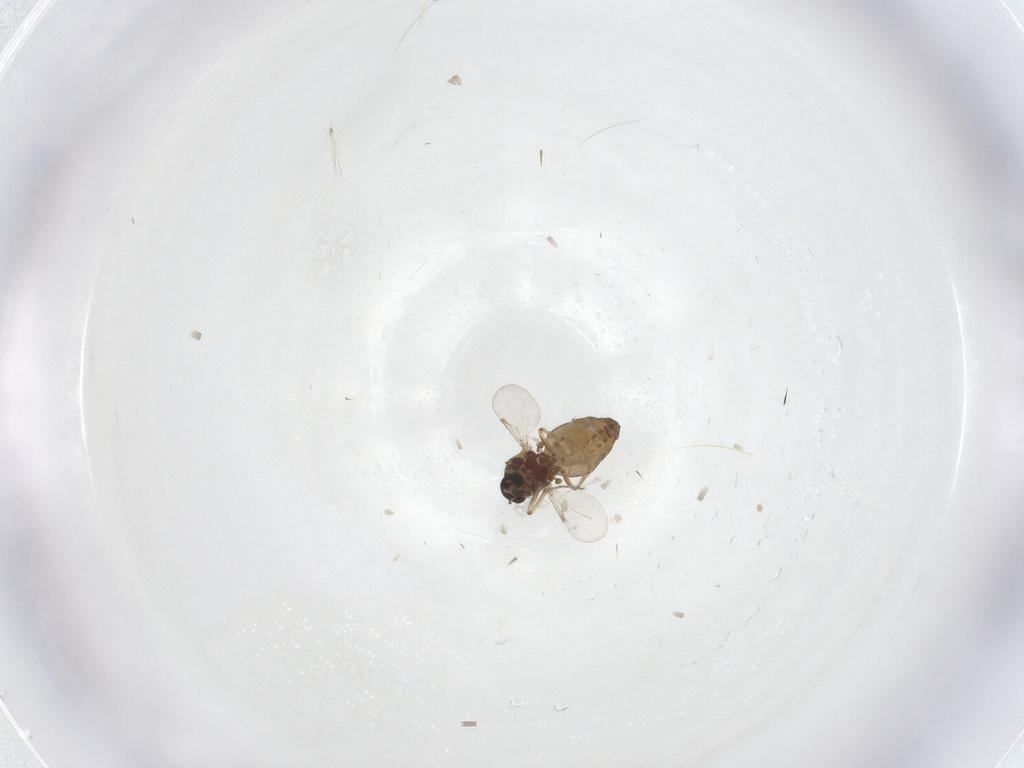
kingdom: Animalia
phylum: Arthropoda
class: Insecta
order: Diptera
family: Ceratopogonidae
